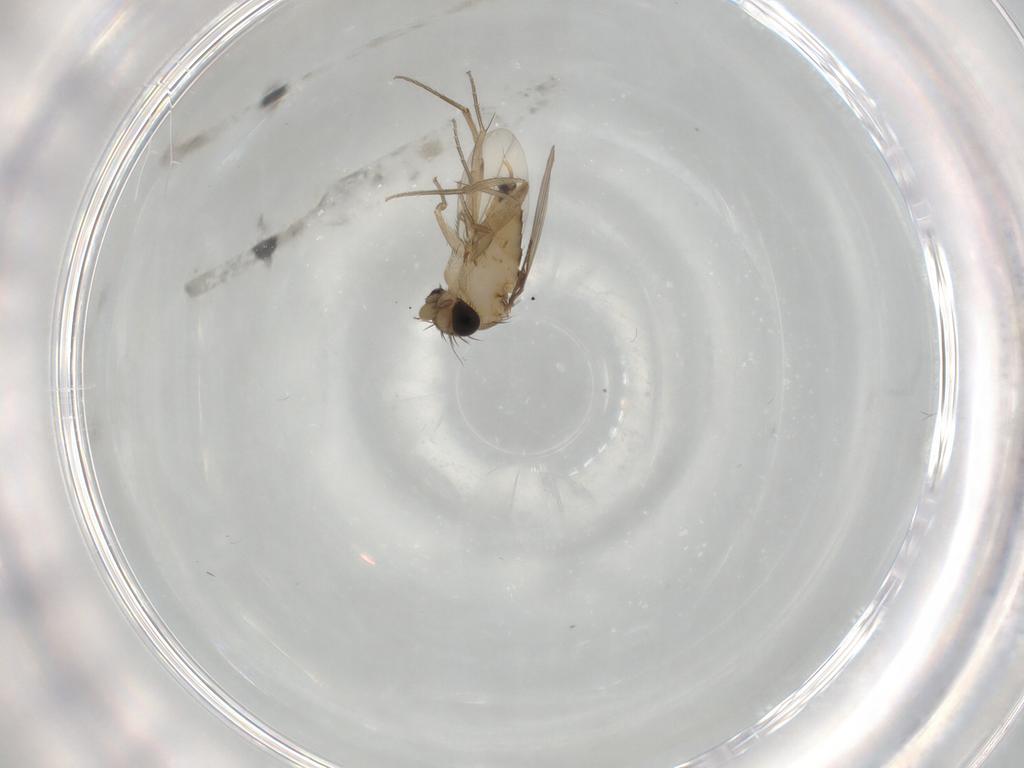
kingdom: Animalia
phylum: Arthropoda
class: Insecta
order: Diptera
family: Phoridae
